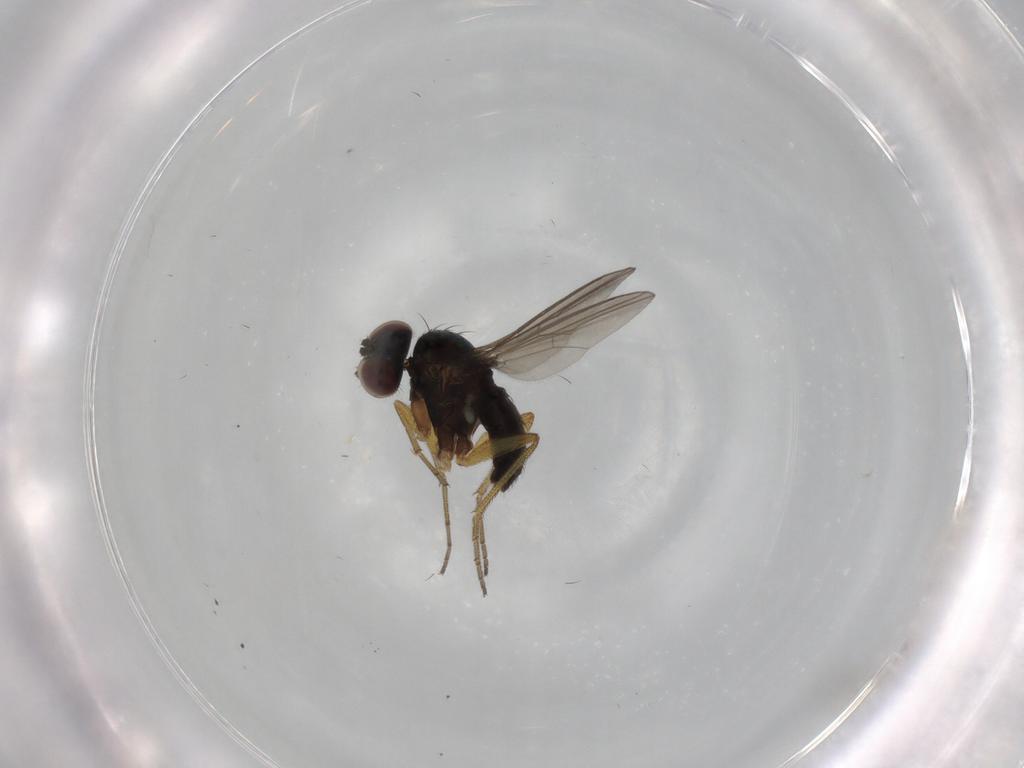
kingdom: Animalia
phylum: Arthropoda
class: Insecta
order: Diptera
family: Dolichopodidae
